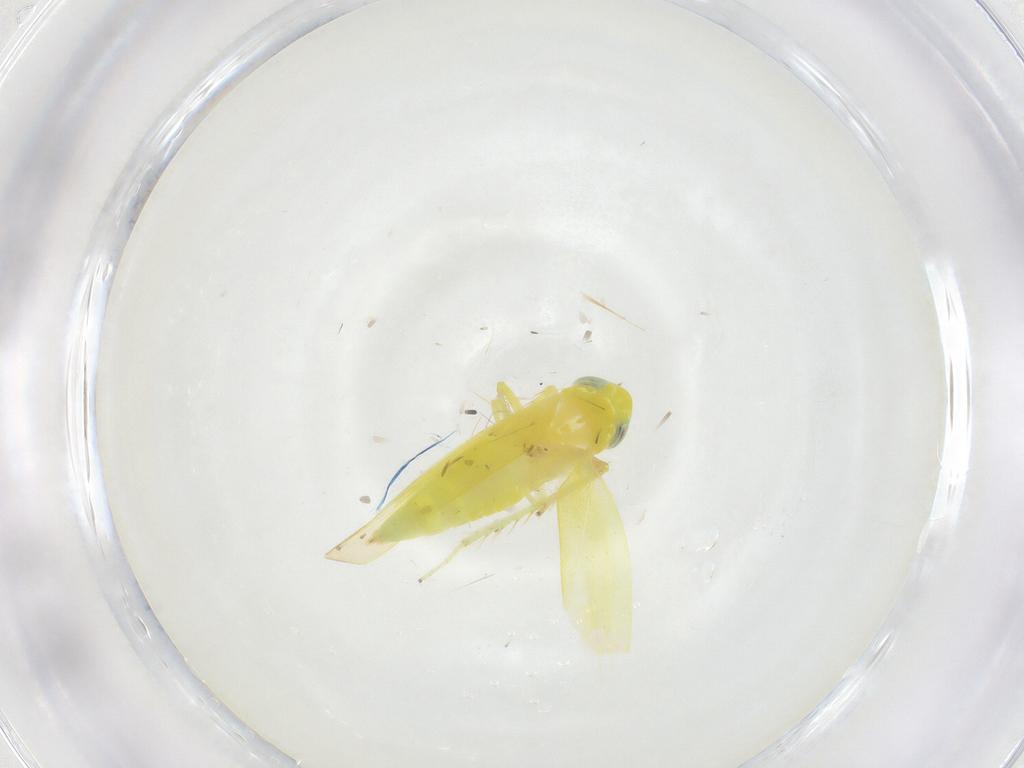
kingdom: Animalia
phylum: Arthropoda
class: Insecta
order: Hemiptera
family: Cicadellidae
